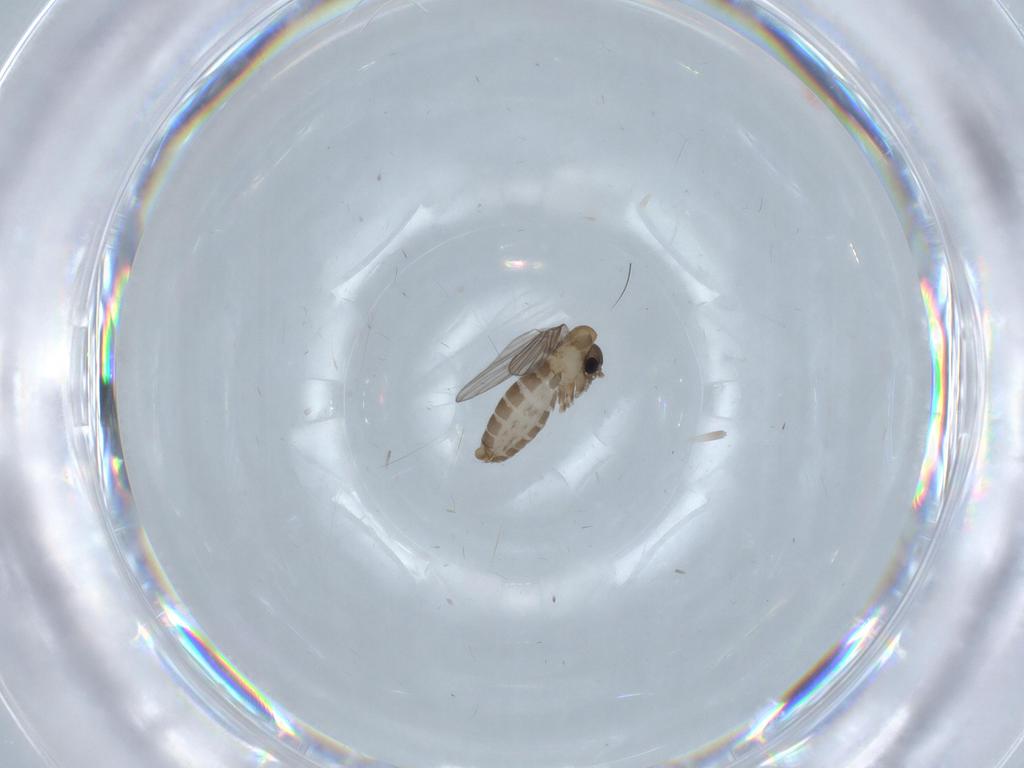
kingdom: Animalia
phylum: Arthropoda
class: Insecta
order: Diptera
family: Psychodidae
